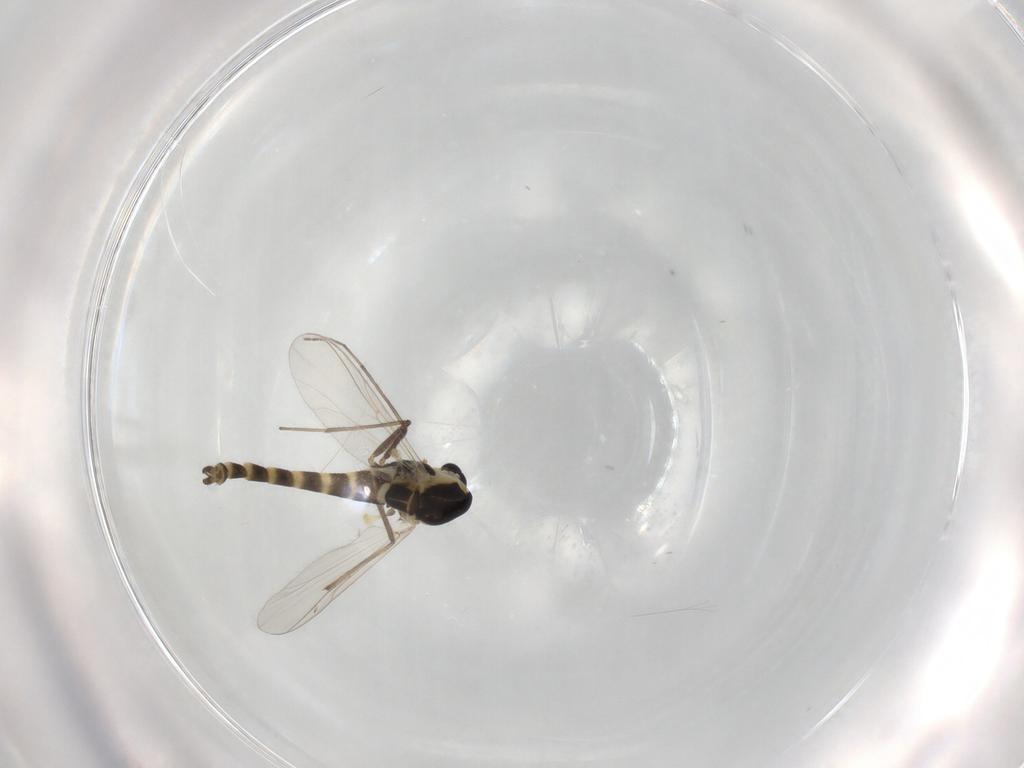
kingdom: Animalia
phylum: Arthropoda
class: Insecta
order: Diptera
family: Chironomidae
